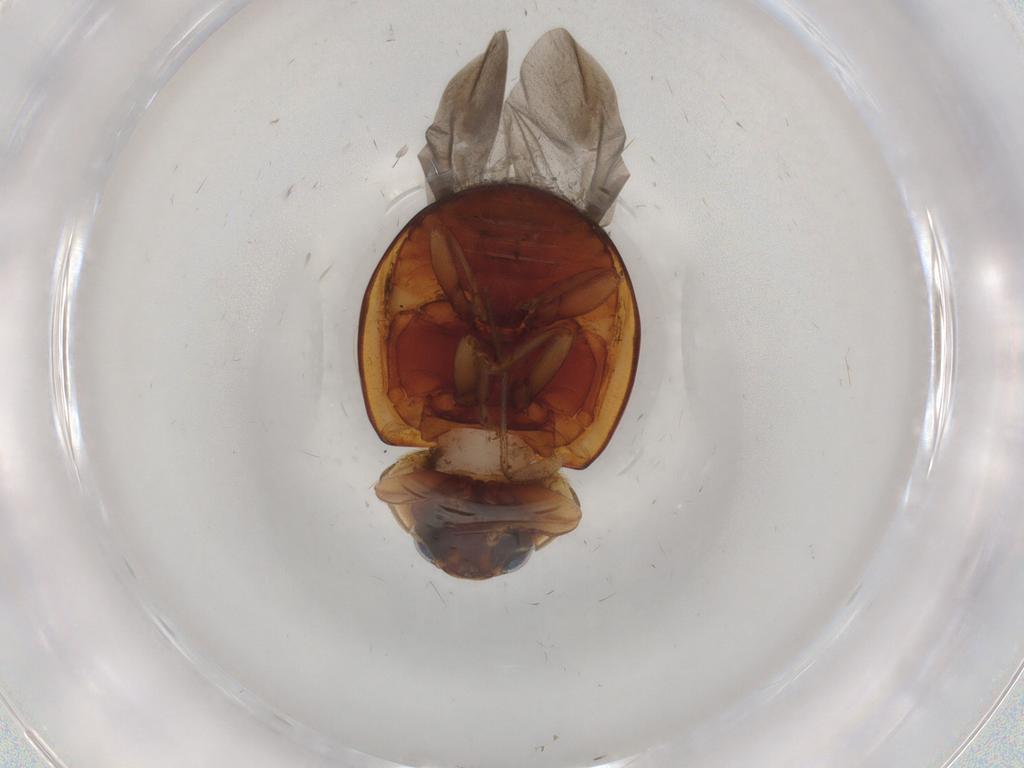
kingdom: Animalia
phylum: Arthropoda
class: Insecta
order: Coleoptera
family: Coccinellidae
